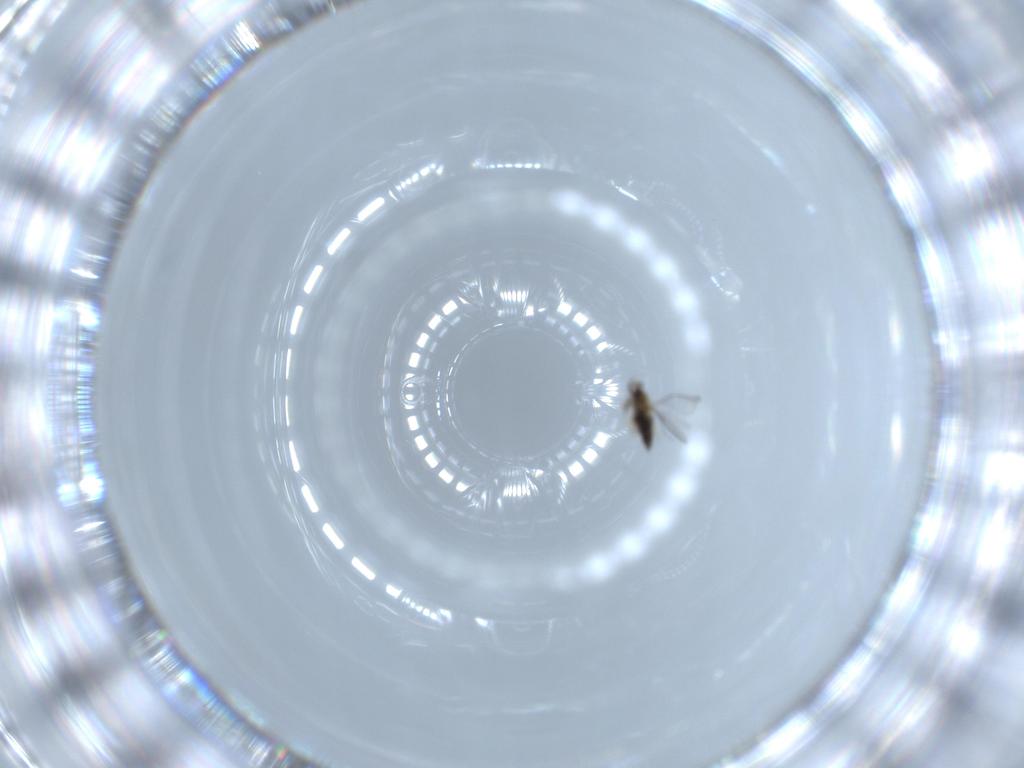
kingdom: Animalia
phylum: Arthropoda
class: Insecta
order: Hymenoptera
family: Trichogrammatidae
